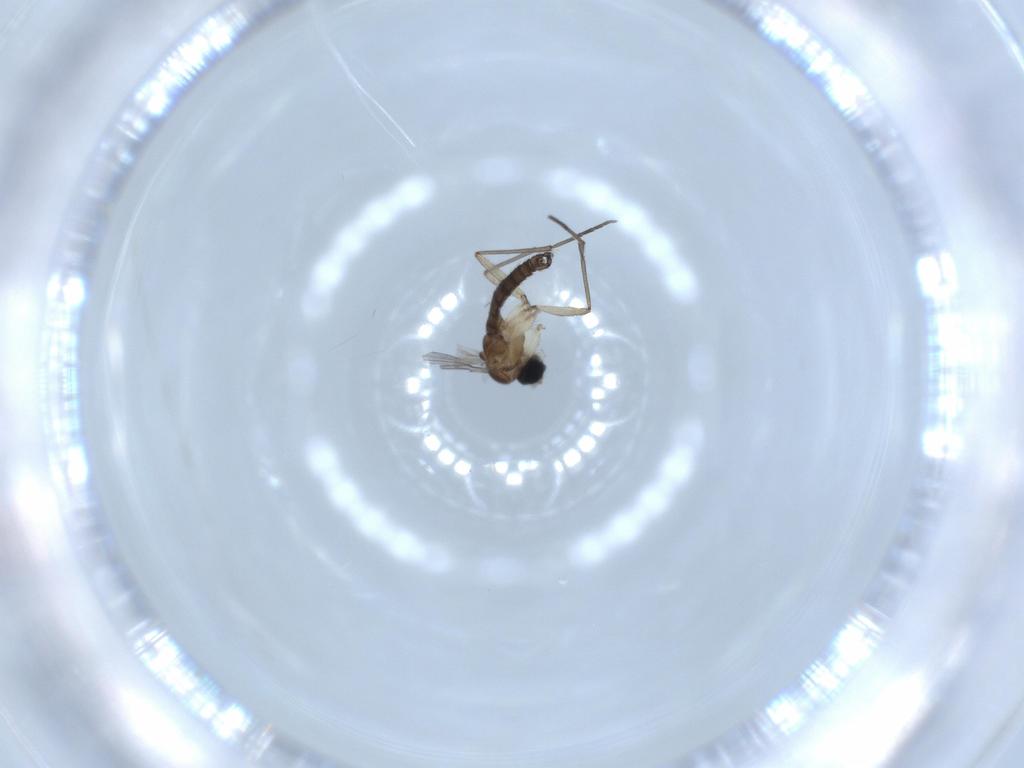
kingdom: Animalia
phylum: Arthropoda
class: Insecta
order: Diptera
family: Sciaridae
